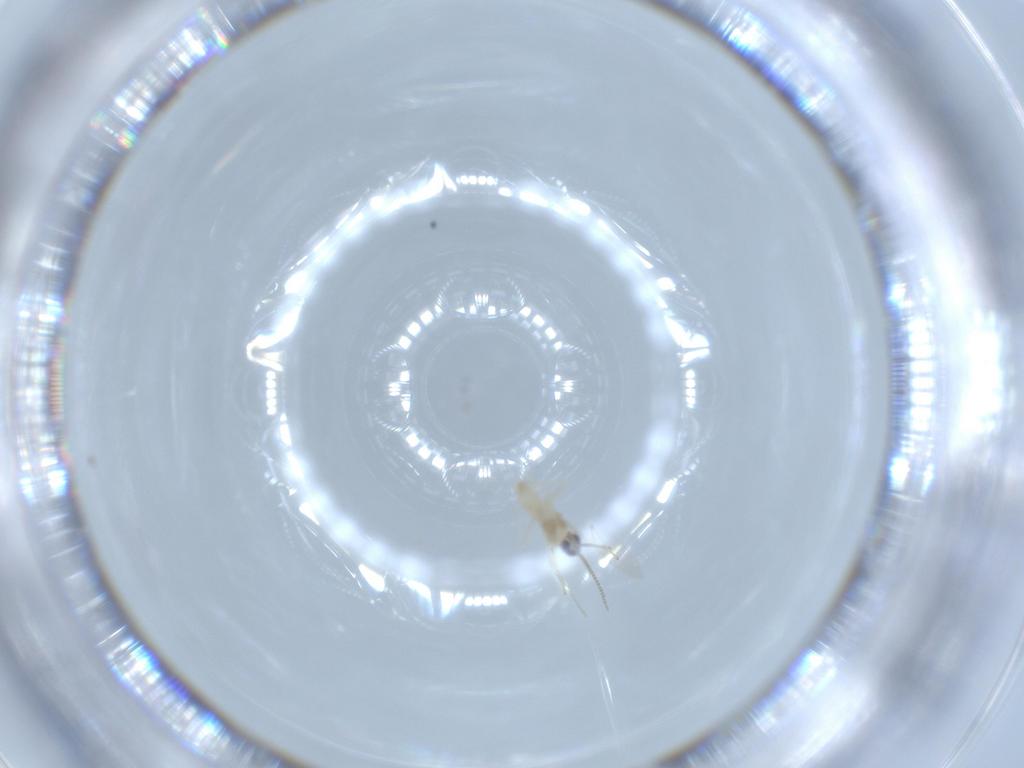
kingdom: Animalia
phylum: Arthropoda
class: Insecta
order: Diptera
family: Cecidomyiidae
